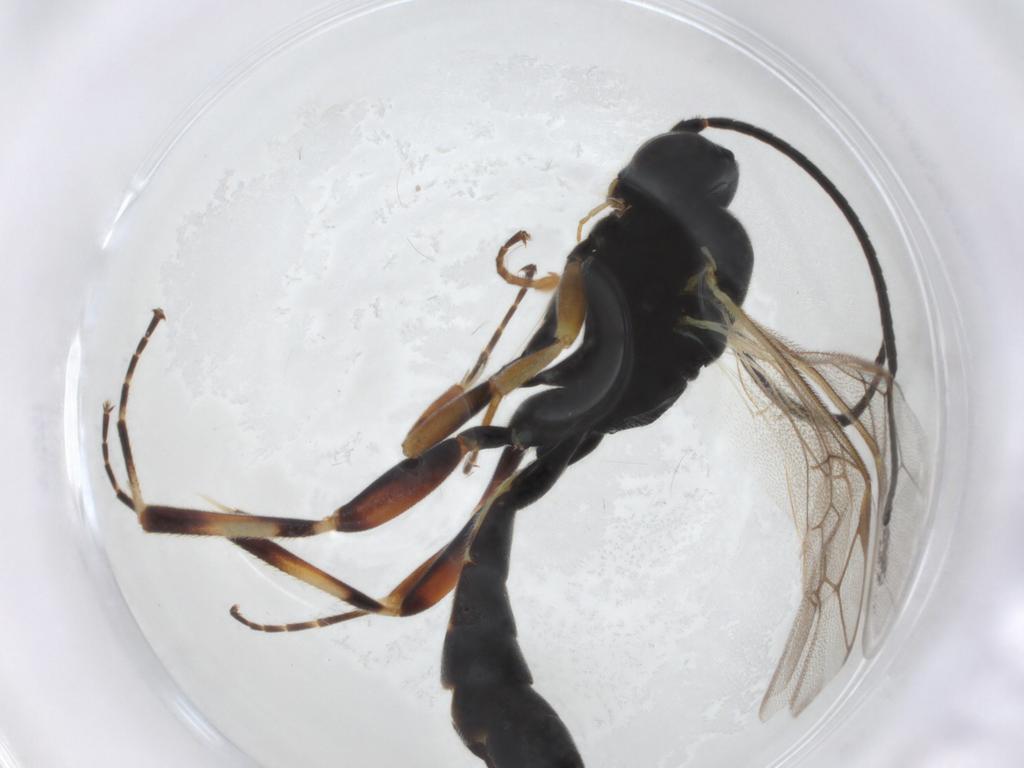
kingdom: Animalia
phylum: Arthropoda
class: Insecta
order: Hymenoptera
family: Ichneumonidae
